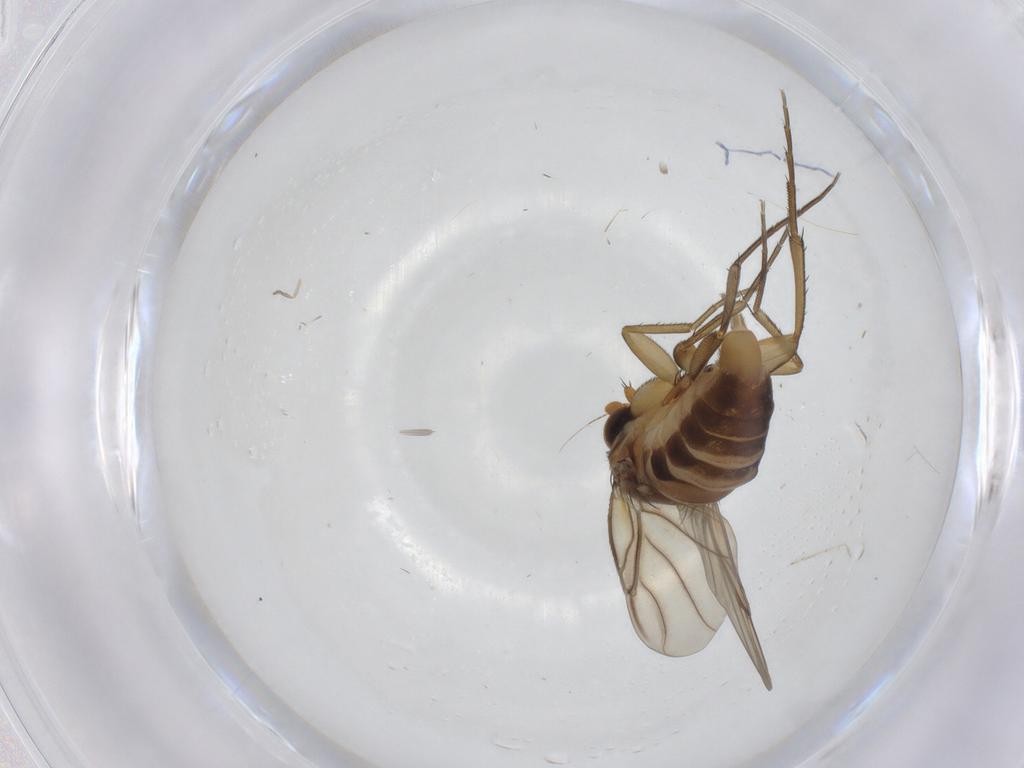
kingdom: Animalia
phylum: Arthropoda
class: Insecta
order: Diptera
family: Phoridae
